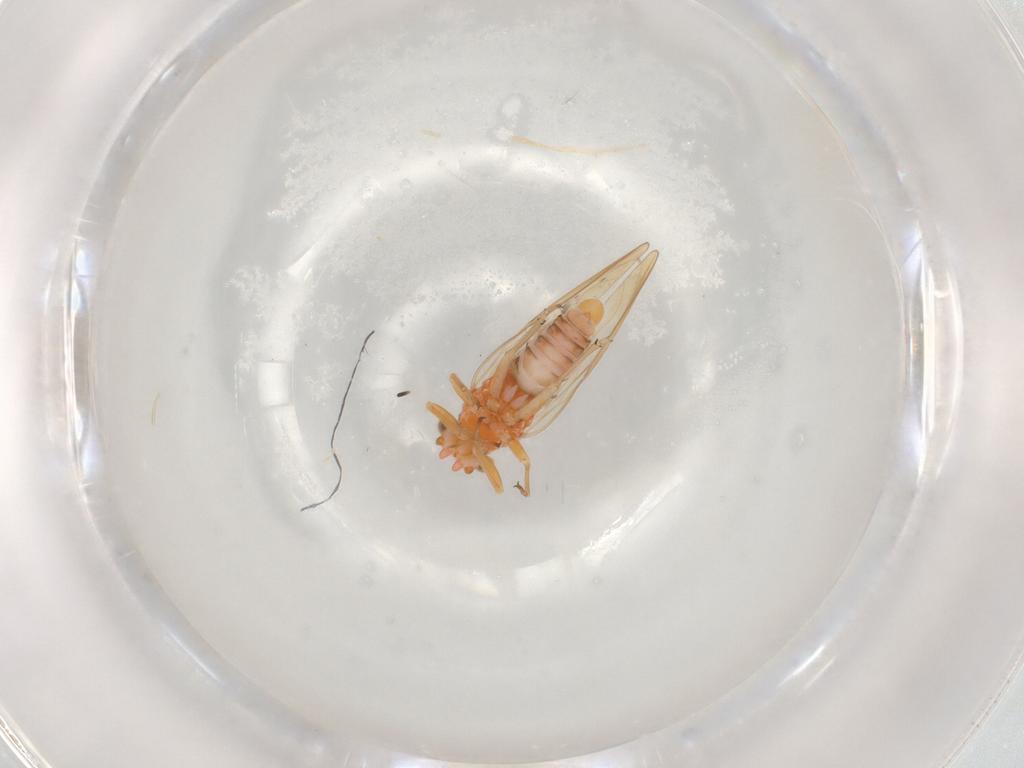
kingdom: Animalia
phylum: Arthropoda
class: Insecta
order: Hemiptera
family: Psyllidae
